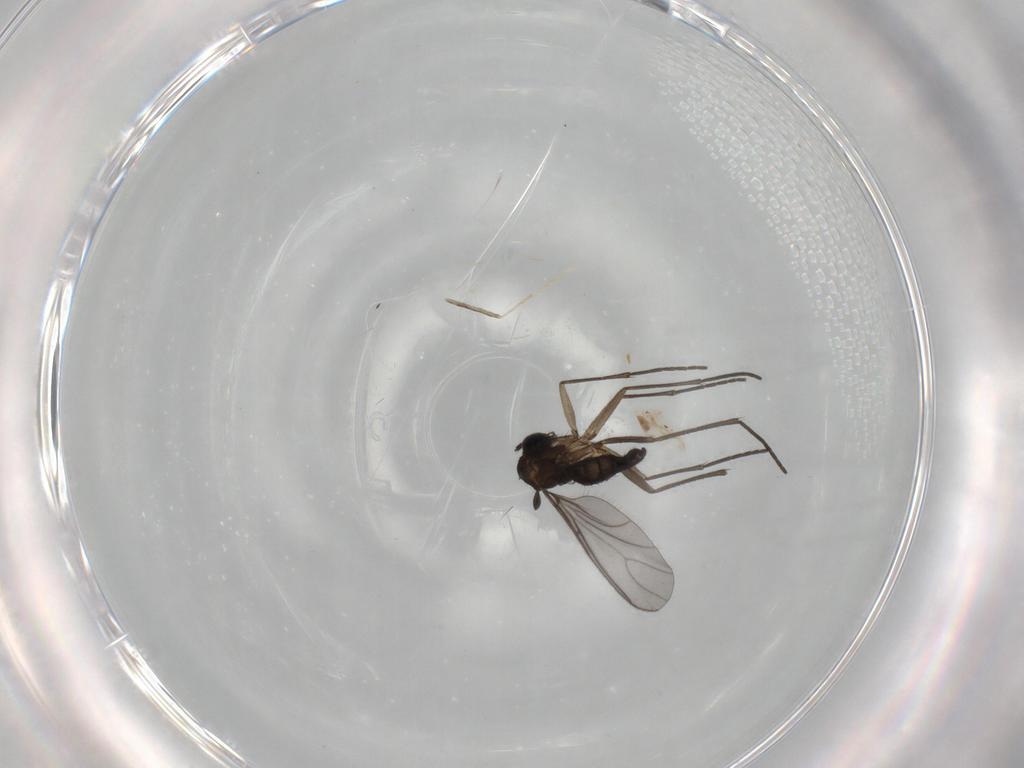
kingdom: Animalia
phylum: Arthropoda
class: Insecta
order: Diptera
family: Sciaridae
